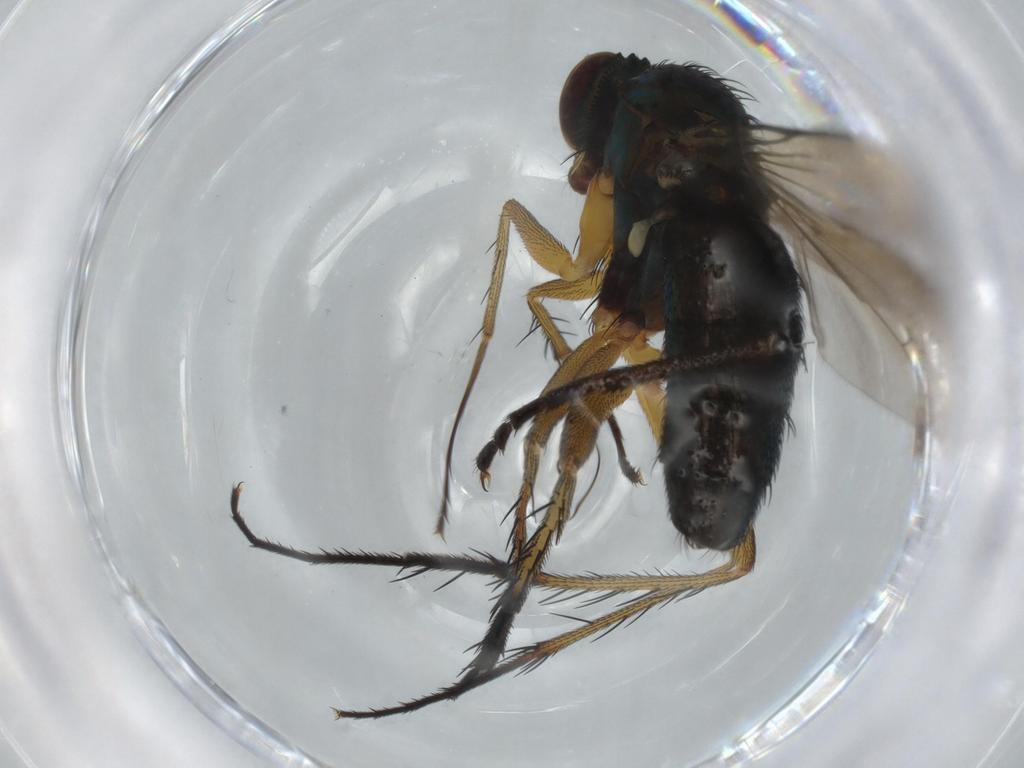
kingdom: Animalia
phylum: Arthropoda
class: Insecta
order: Diptera
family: Dolichopodidae
